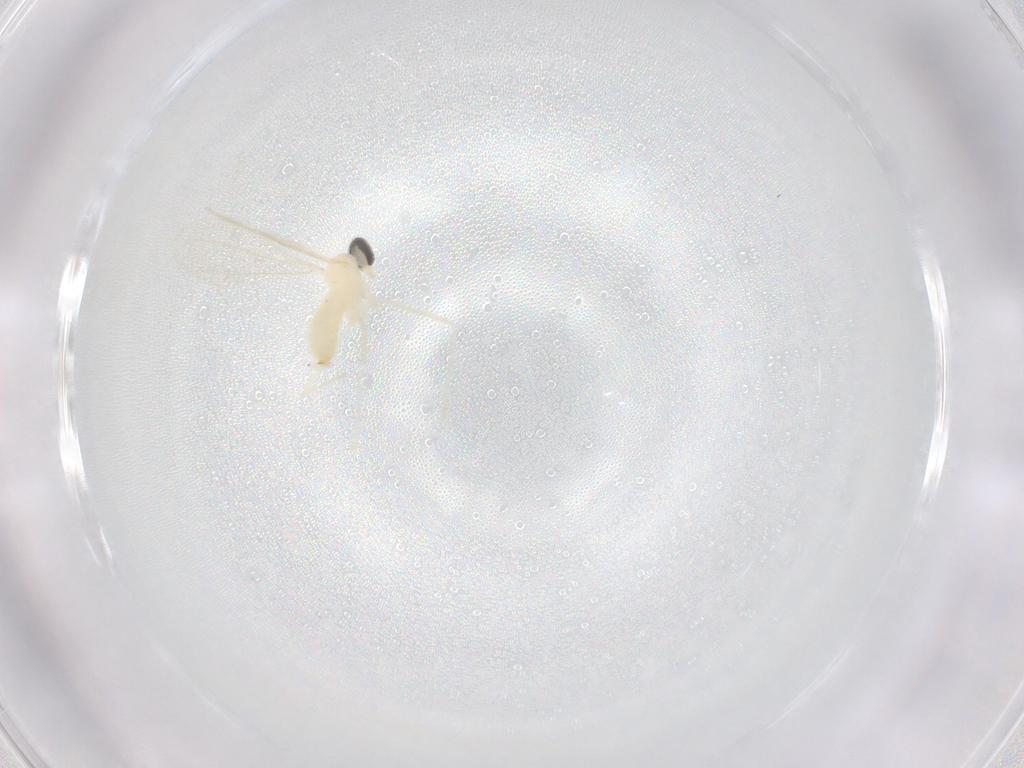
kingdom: Animalia
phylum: Arthropoda
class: Insecta
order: Diptera
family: Cecidomyiidae
